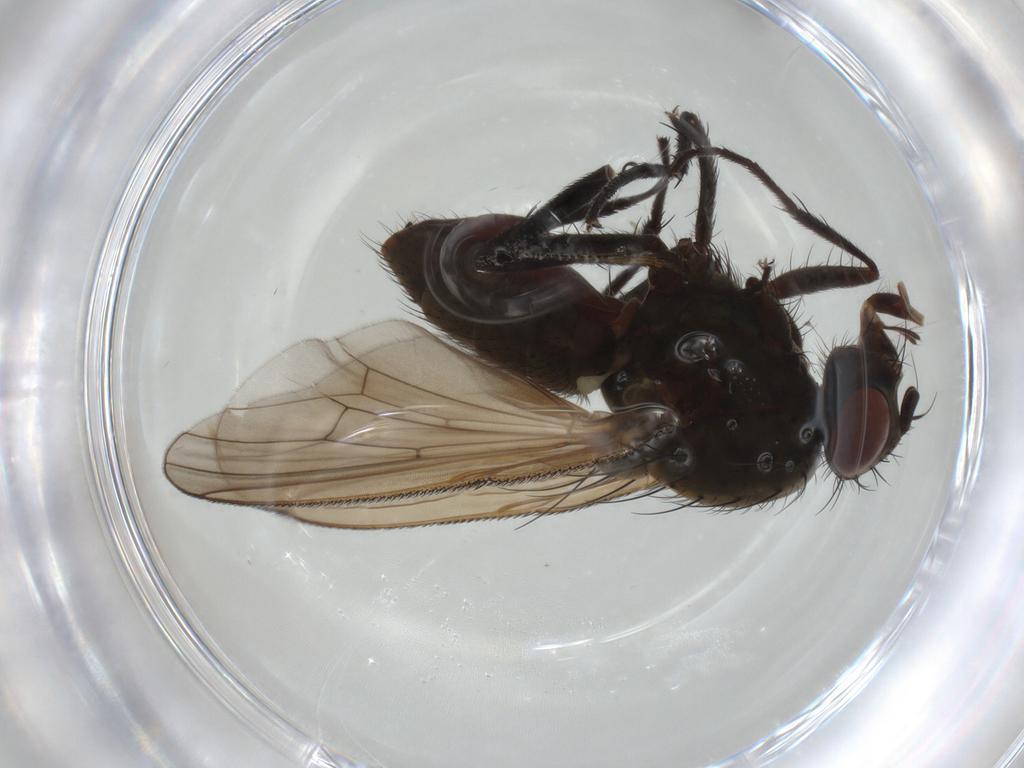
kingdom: Animalia
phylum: Arthropoda
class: Insecta
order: Diptera
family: Anthomyiidae
